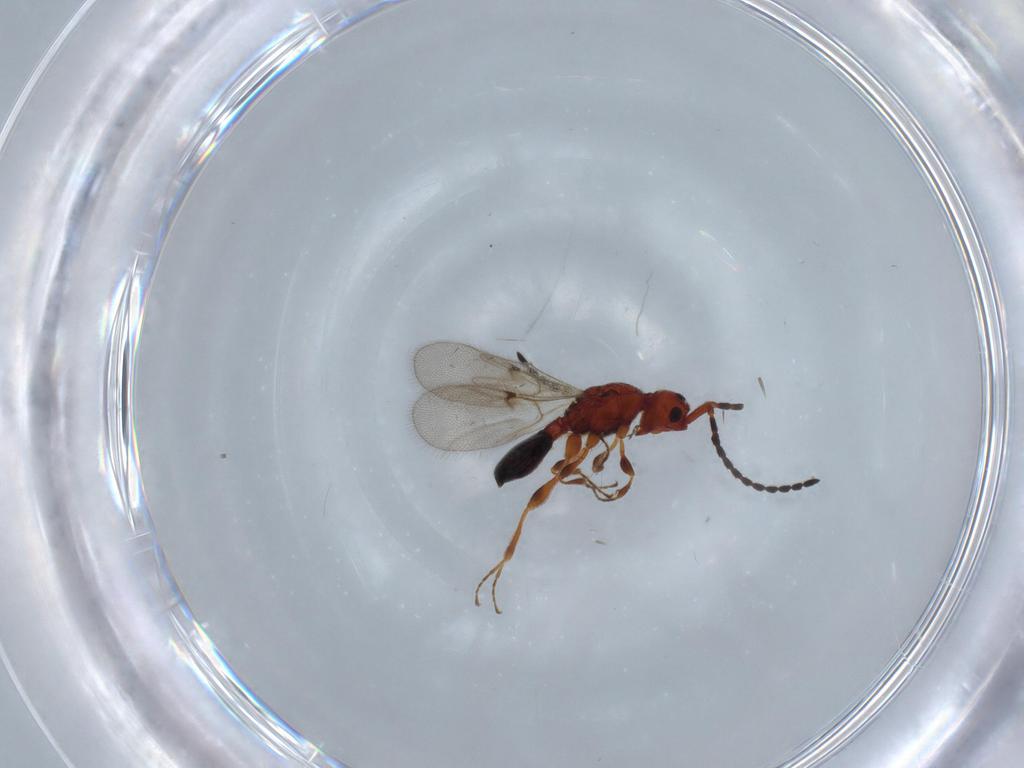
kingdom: Animalia
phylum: Arthropoda
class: Insecta
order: Hymenoptera
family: Diapriidae
